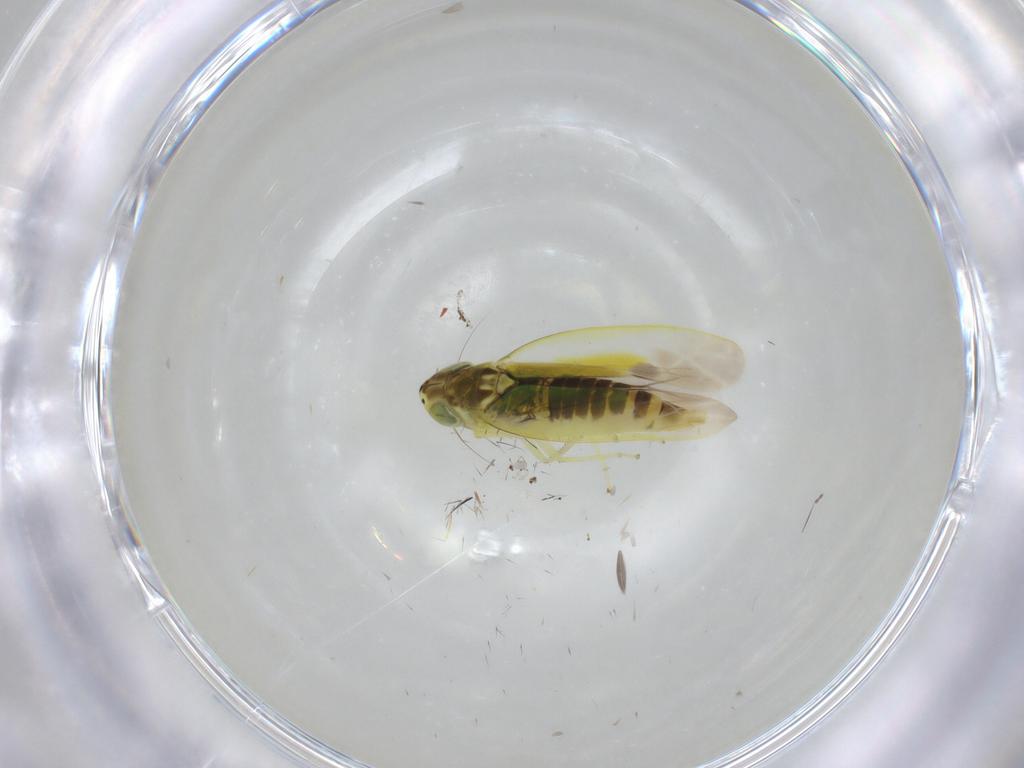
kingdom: Animalia
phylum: Arthropoda
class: Insecta
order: Hemiptera
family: Cicadellidae
